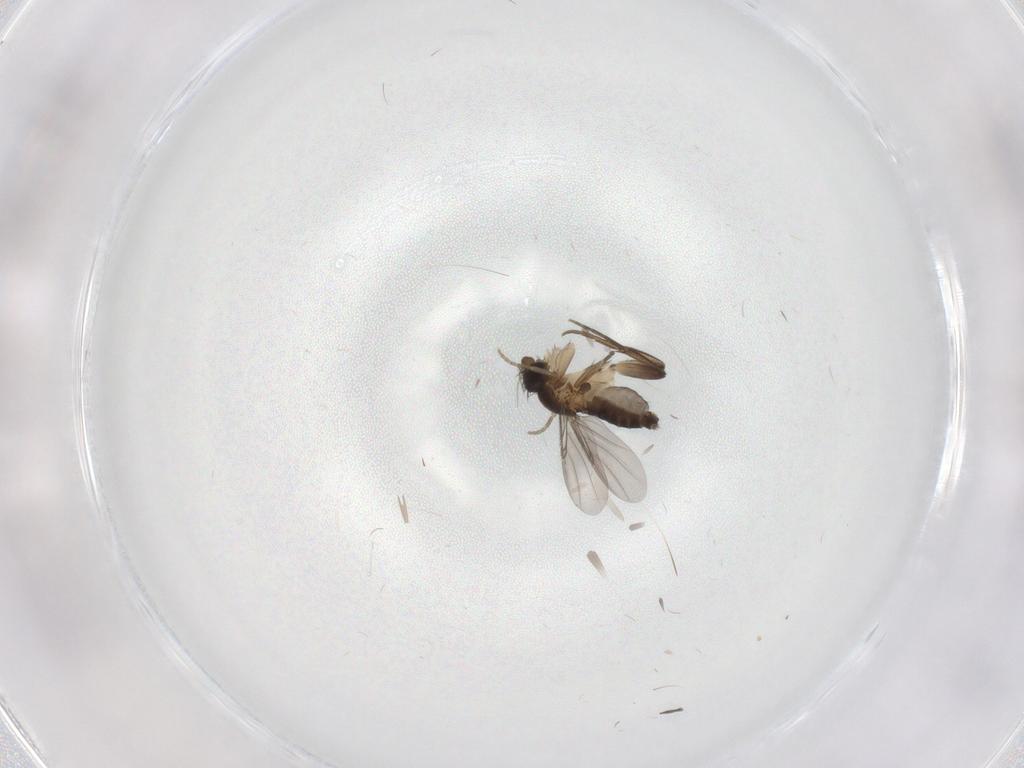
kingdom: Animalia
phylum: Arthropoda
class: Insecta
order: Diptera
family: Phoridae
